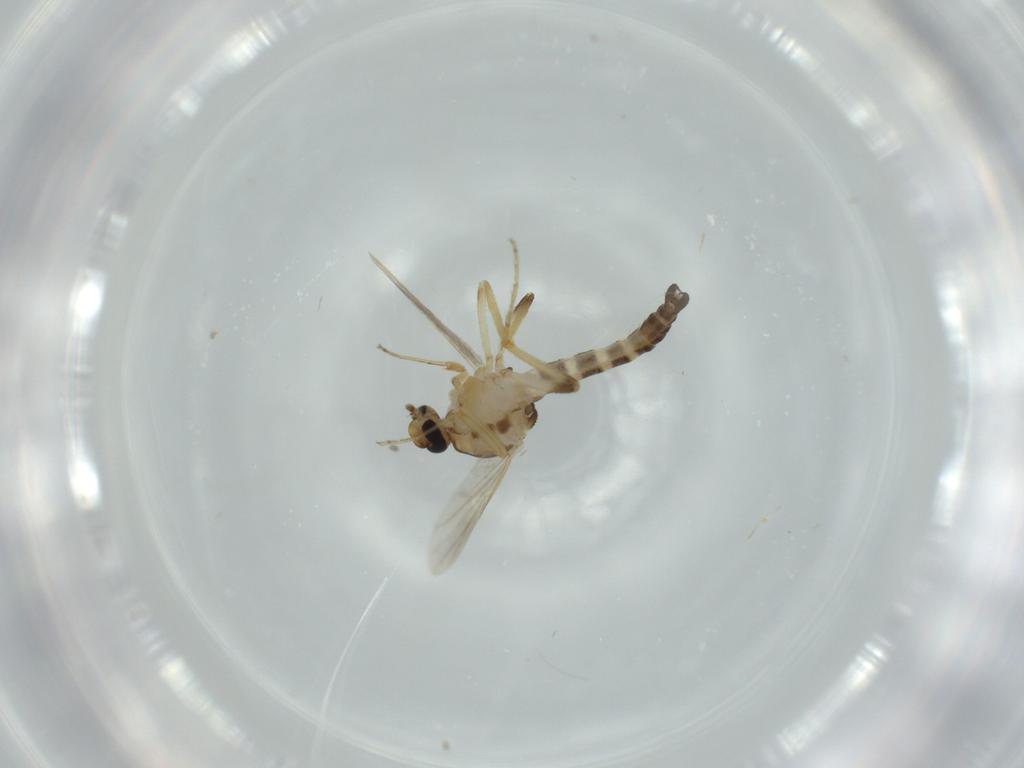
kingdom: Animalia
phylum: Arthropoda
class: Insecta
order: Diptera
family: Ceratopogonidae
